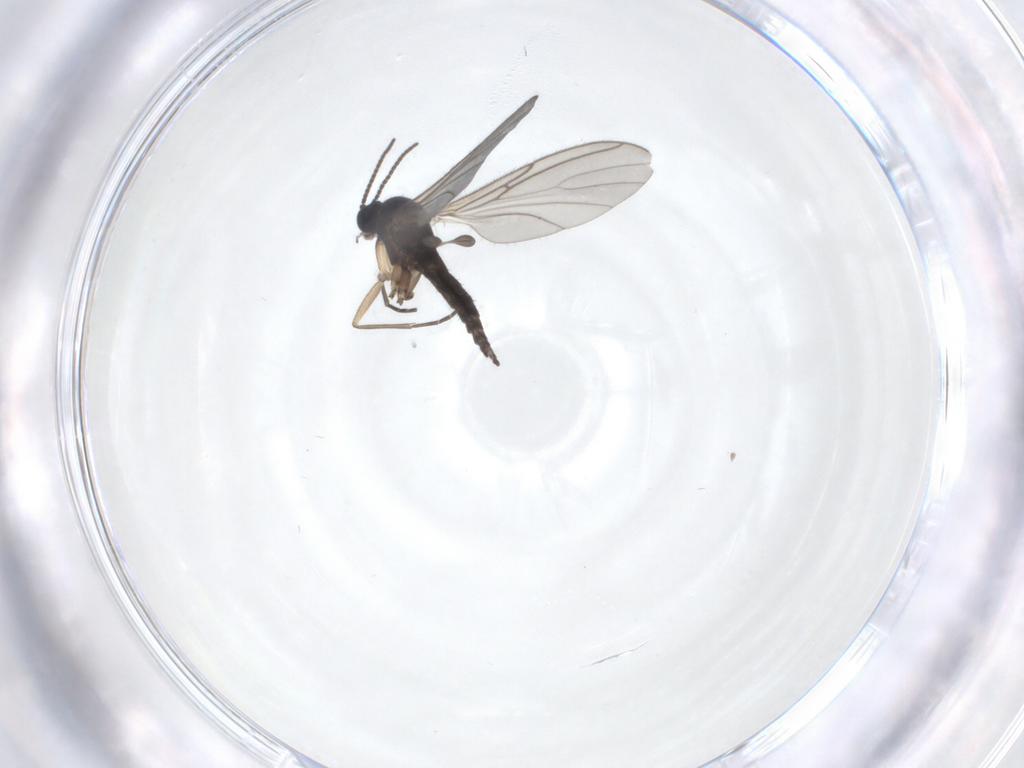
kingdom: Animalia
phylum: Arthropoda
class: Insecta
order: Diptera
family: Sciaridae
